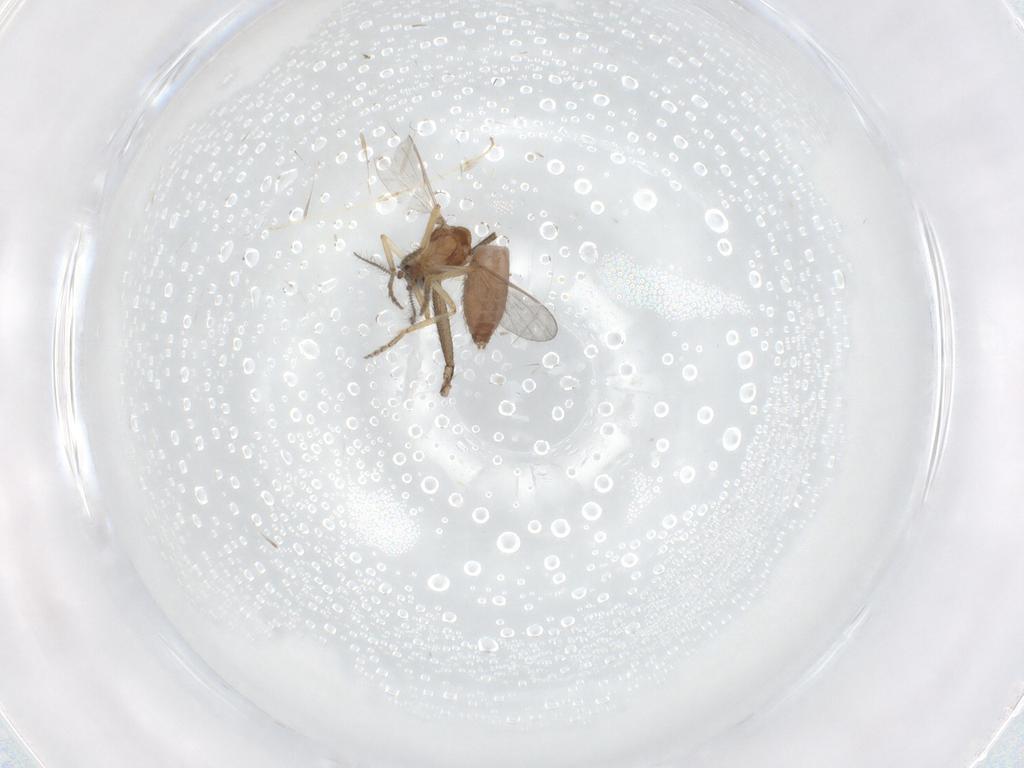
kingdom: Animalia
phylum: Arthropoda
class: Insecta
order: Diptera
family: Ceratopogonidae
